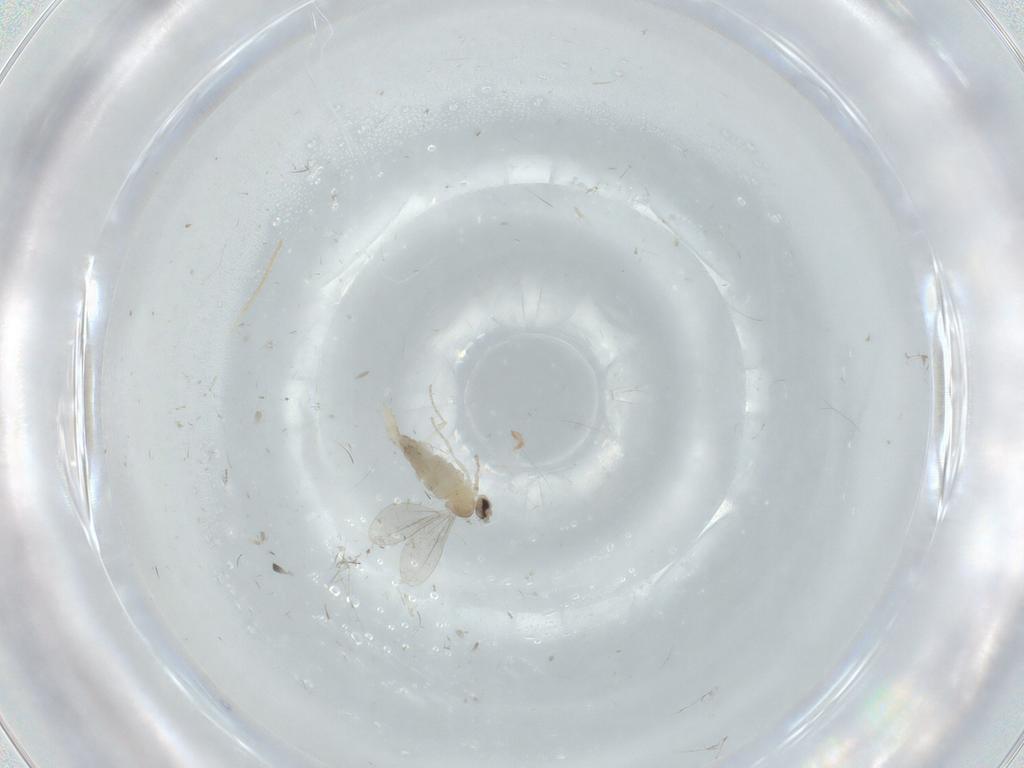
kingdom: Animalia
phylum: Arthropoda
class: Insecta
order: Diptera
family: Cecidomyiidae
